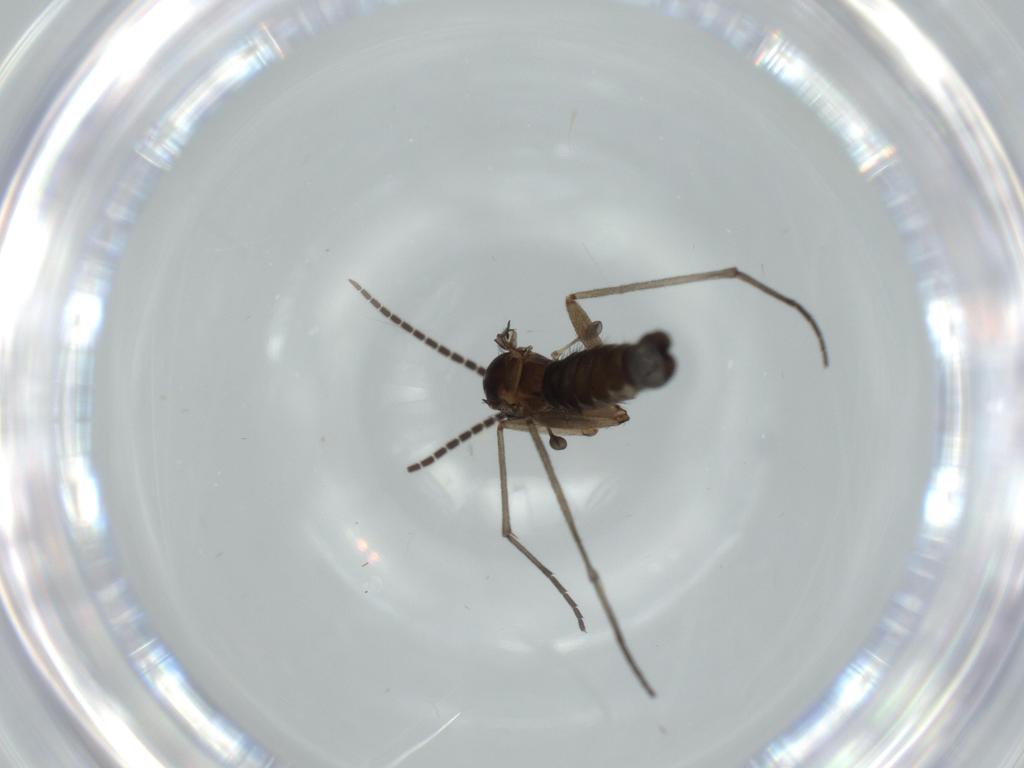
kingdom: Animalia
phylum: Arthropoda
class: Insecta
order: Diptera
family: Sciaridae
